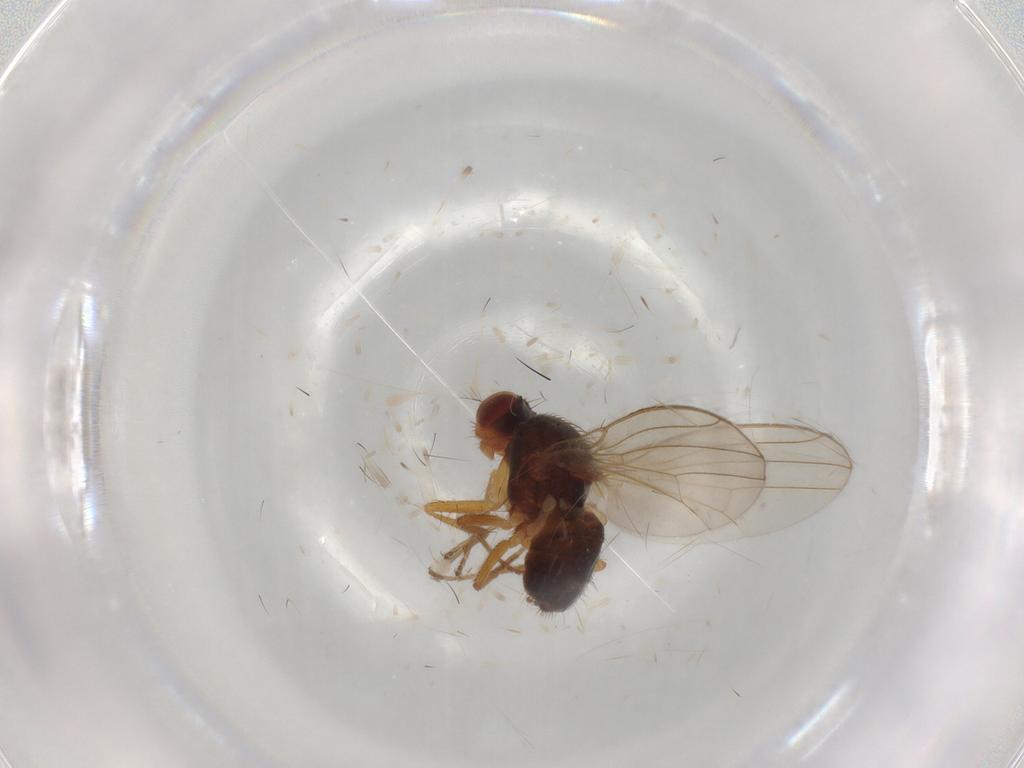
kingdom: Animalia
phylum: Arthropoda
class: Insecta
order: Diptera
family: Drosophilidae
